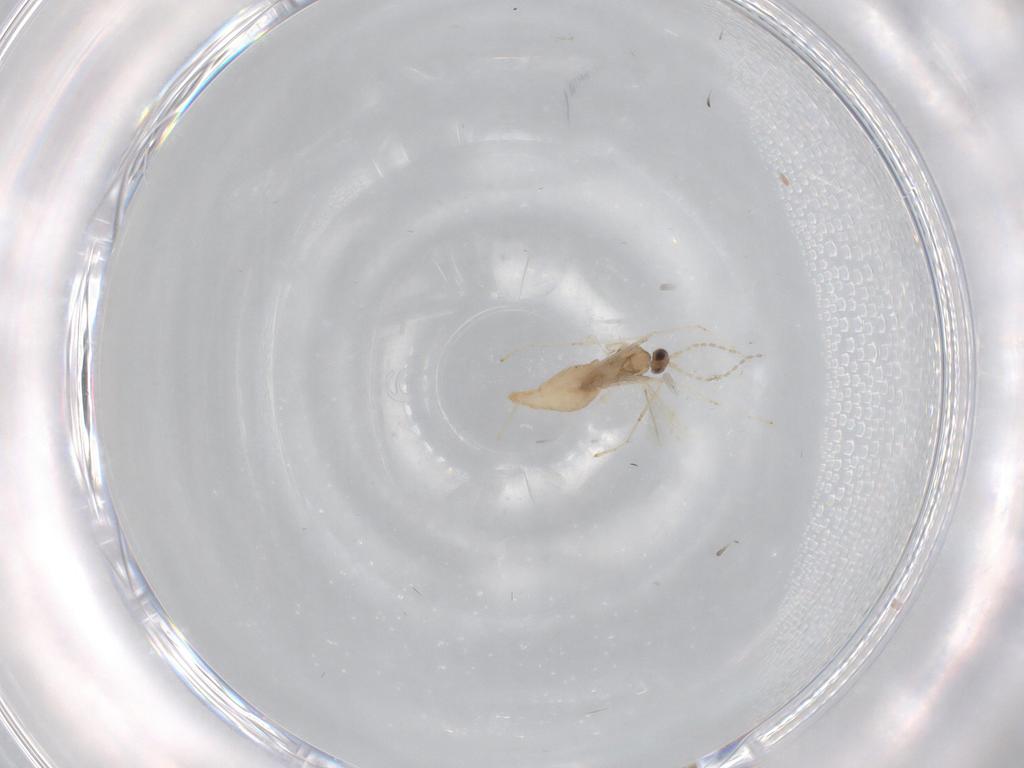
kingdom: Animalia
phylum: Arthropoda
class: Insecta
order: Diptera
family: Cecidomyiidae
